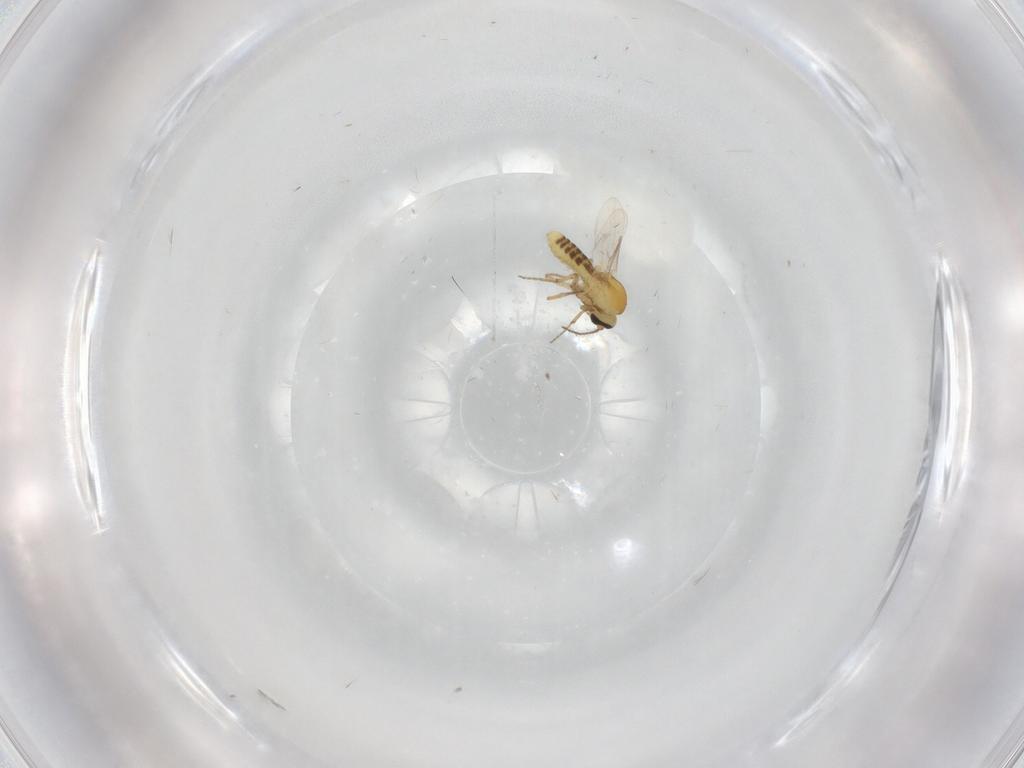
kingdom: Animalia
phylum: Arthropoda
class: Insecta
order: Diptera
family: Ceratopogonidae
